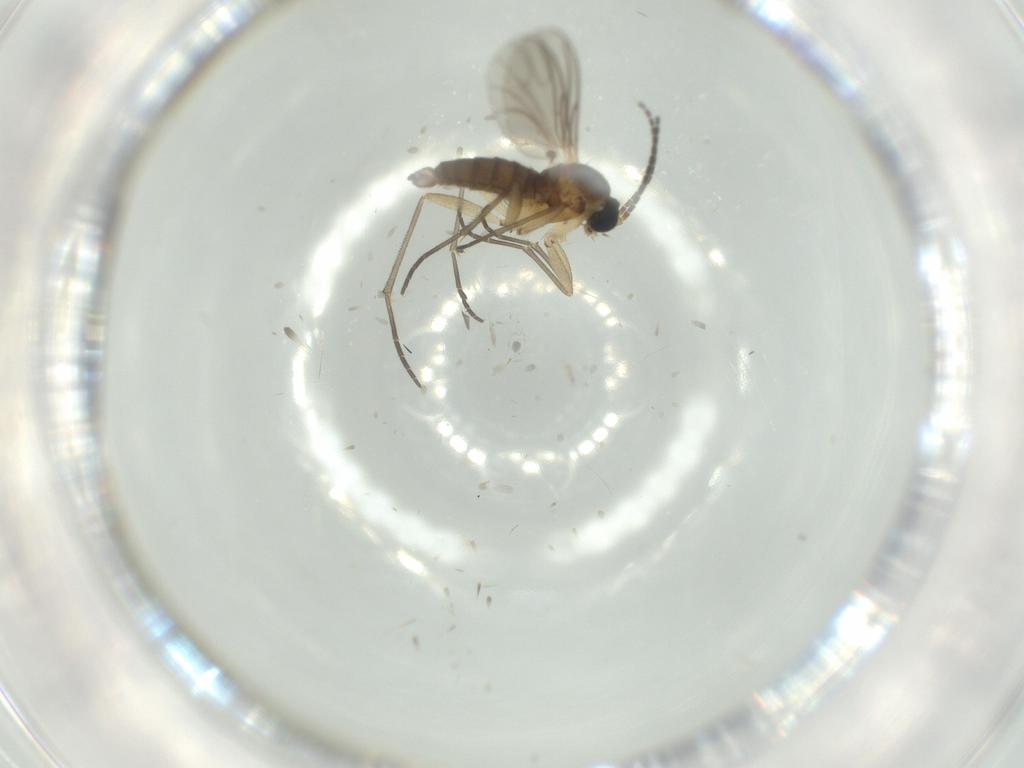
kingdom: Animalia
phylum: Arthropoda
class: Insecta
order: Diptera
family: Sciaridae
